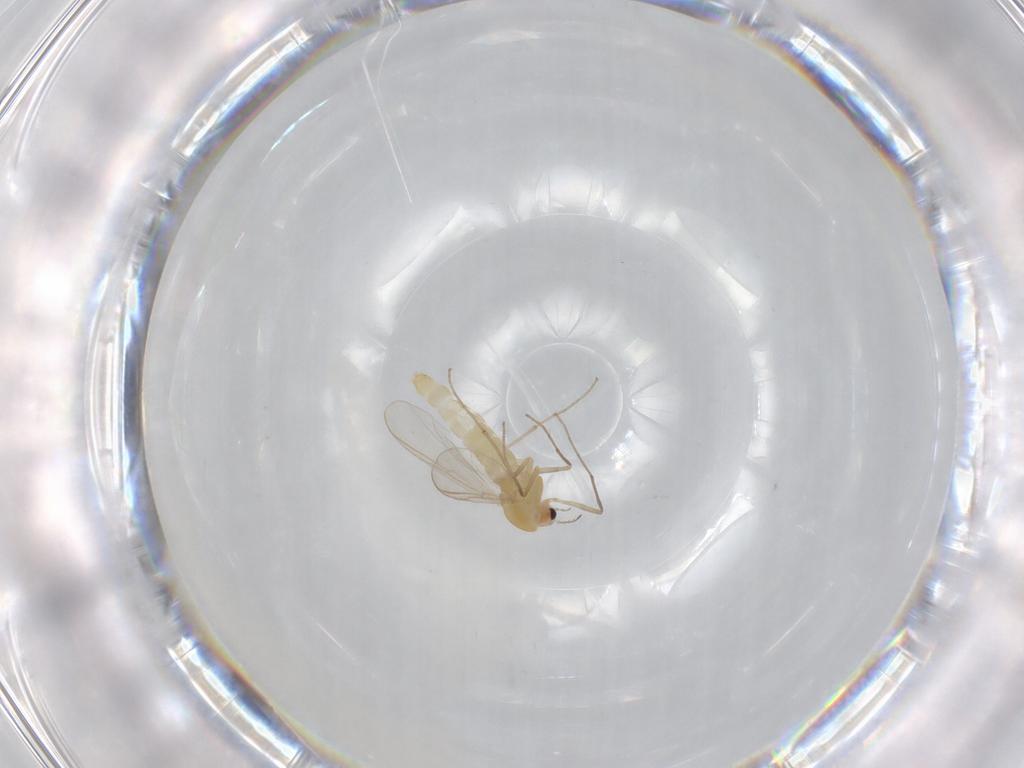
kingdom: Animalia
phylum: Arthropoda
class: Insecta
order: Diptera
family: Chironomidae
